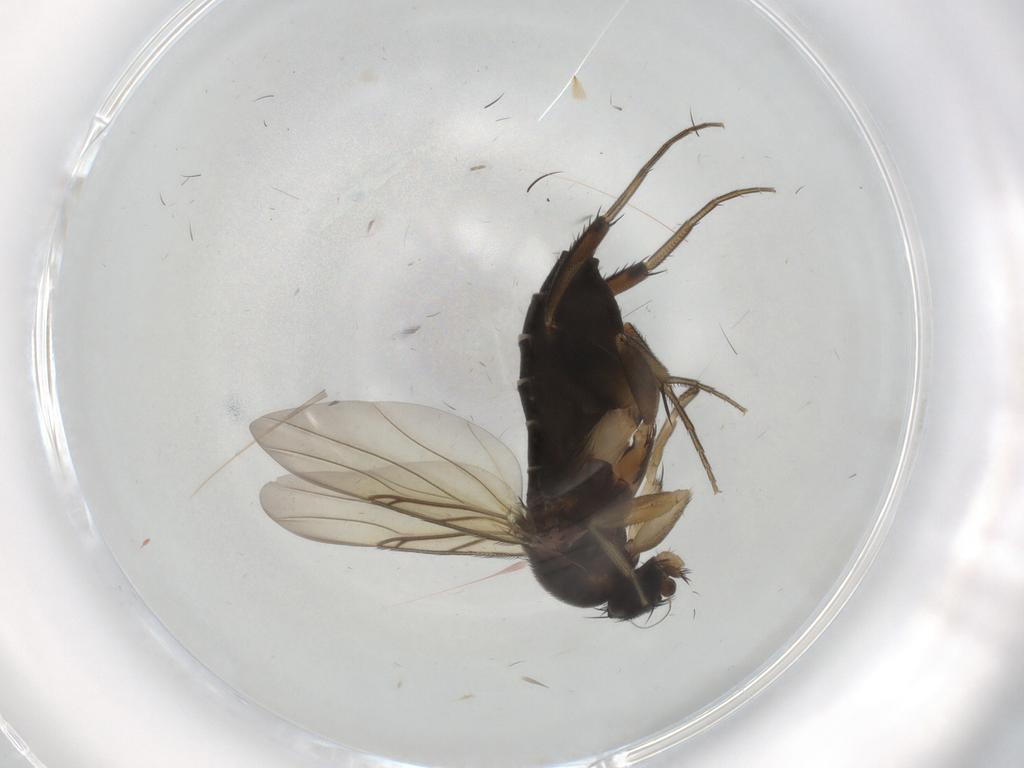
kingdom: Animalia
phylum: Arthropoda
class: Insecta
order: Diptera
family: Phoridae
